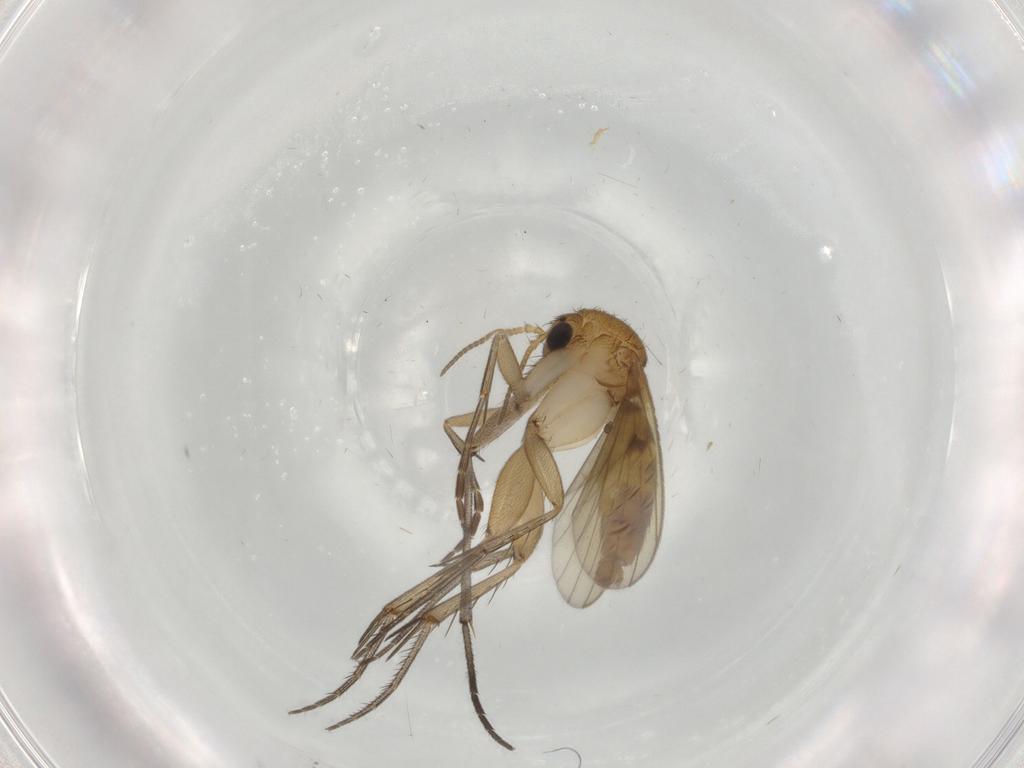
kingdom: Animalia
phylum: Arthropoda
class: Insecta
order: Diptera
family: Psychodidae
